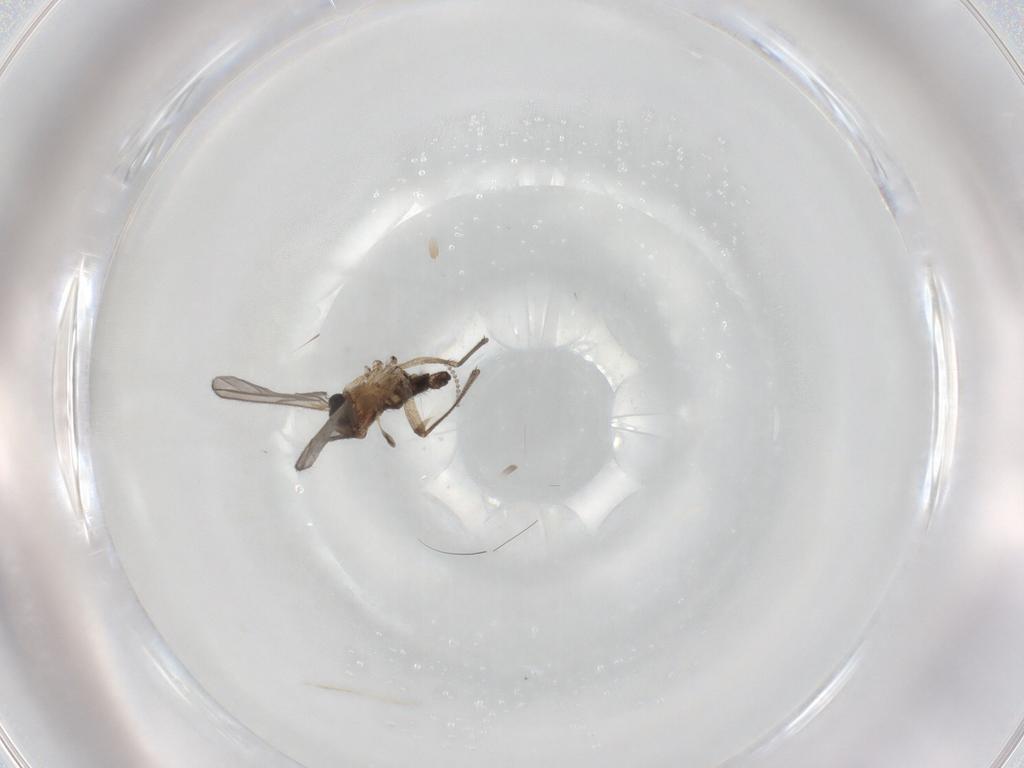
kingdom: Animalia
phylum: Arthropoda
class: Insecta
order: Diptera
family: Sciaridae
